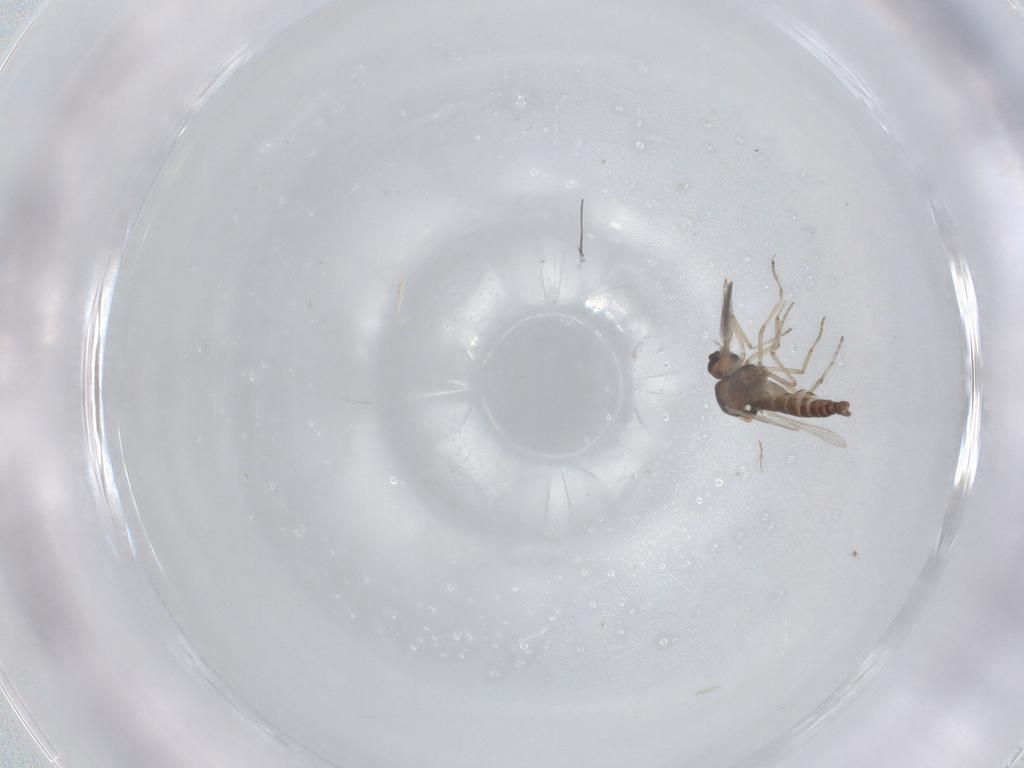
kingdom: Animalia
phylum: Arthropoda
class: Insecta
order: Diptera
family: Ceratopogonidae
